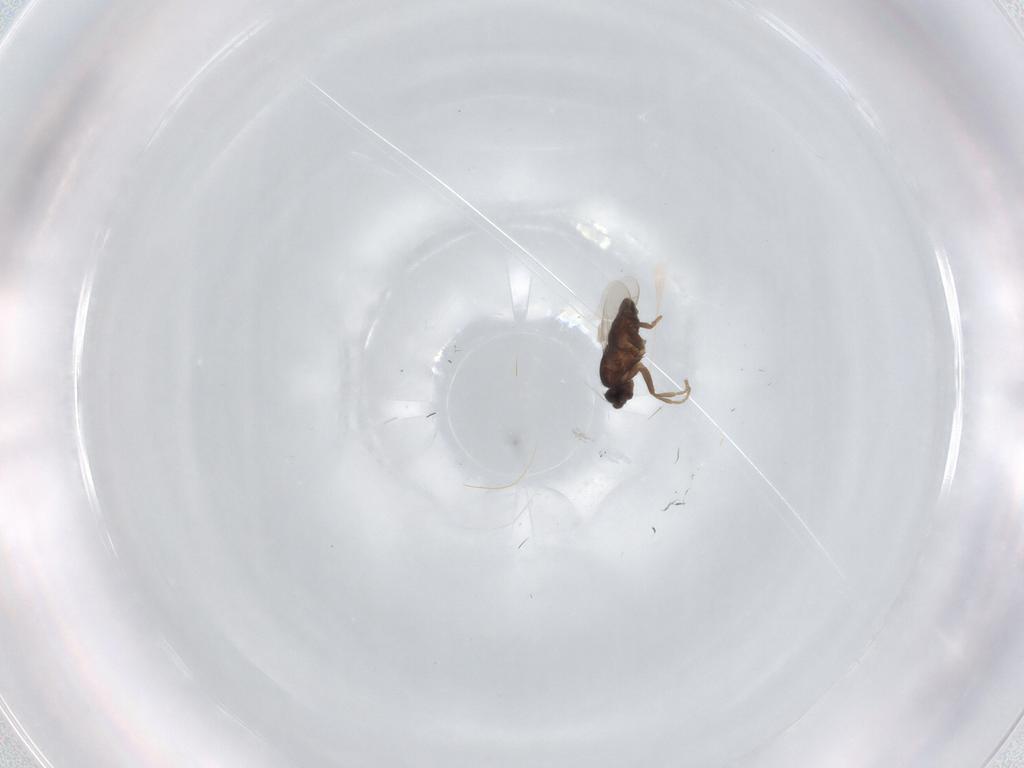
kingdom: Animalia
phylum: Arthropoda
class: Insecta
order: Diptera
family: Sphaeroceridae
